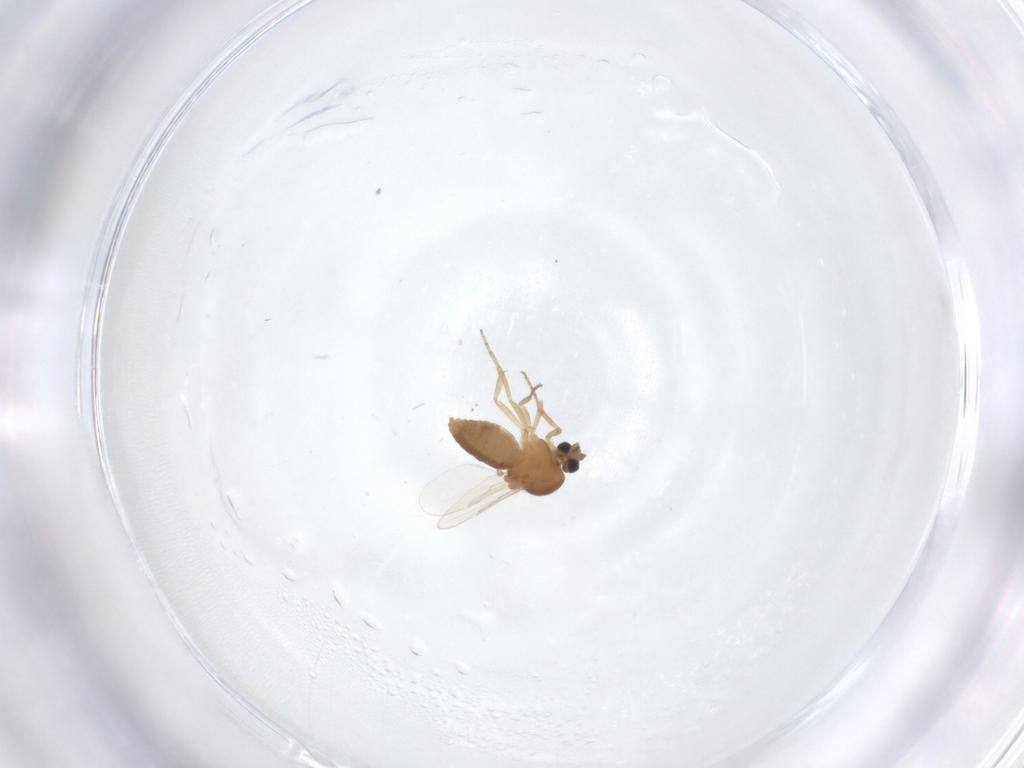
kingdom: Animalia
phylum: Arthropoda
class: Insecta
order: Diptera
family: Ceratopogonidae
